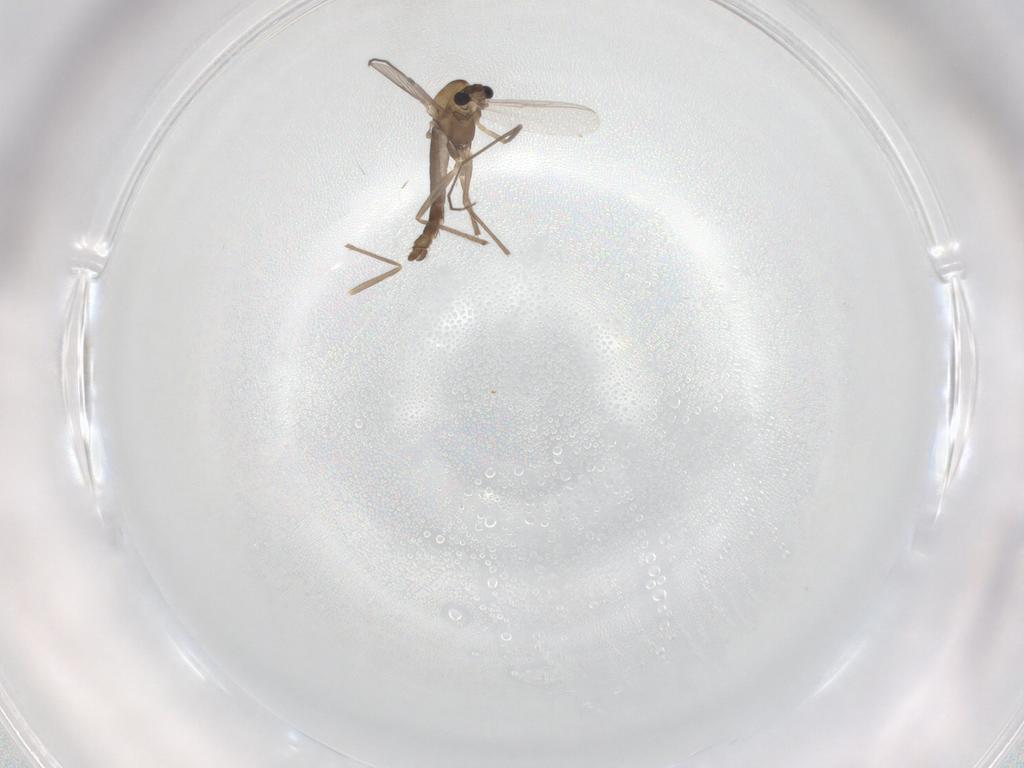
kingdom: Animalia
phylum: Arthropoda
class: Insecta
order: Diptera
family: Chironomidae
